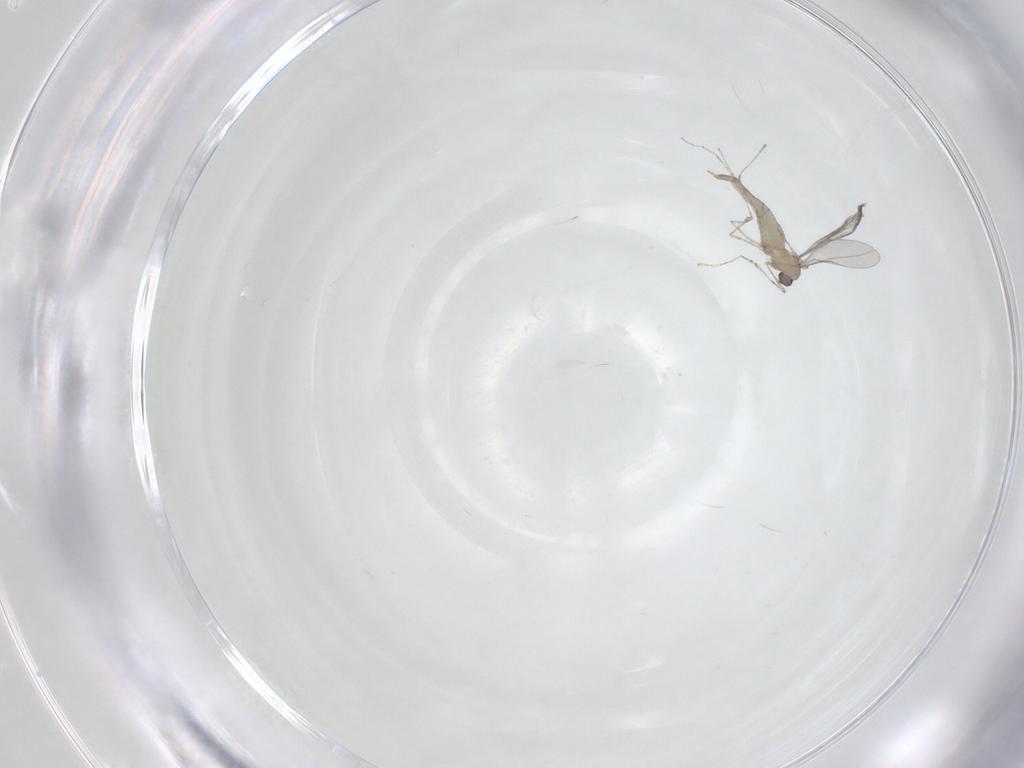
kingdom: Animalia
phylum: Arthropoda
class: Insecta
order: Diptera
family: Cecidomyiidae
